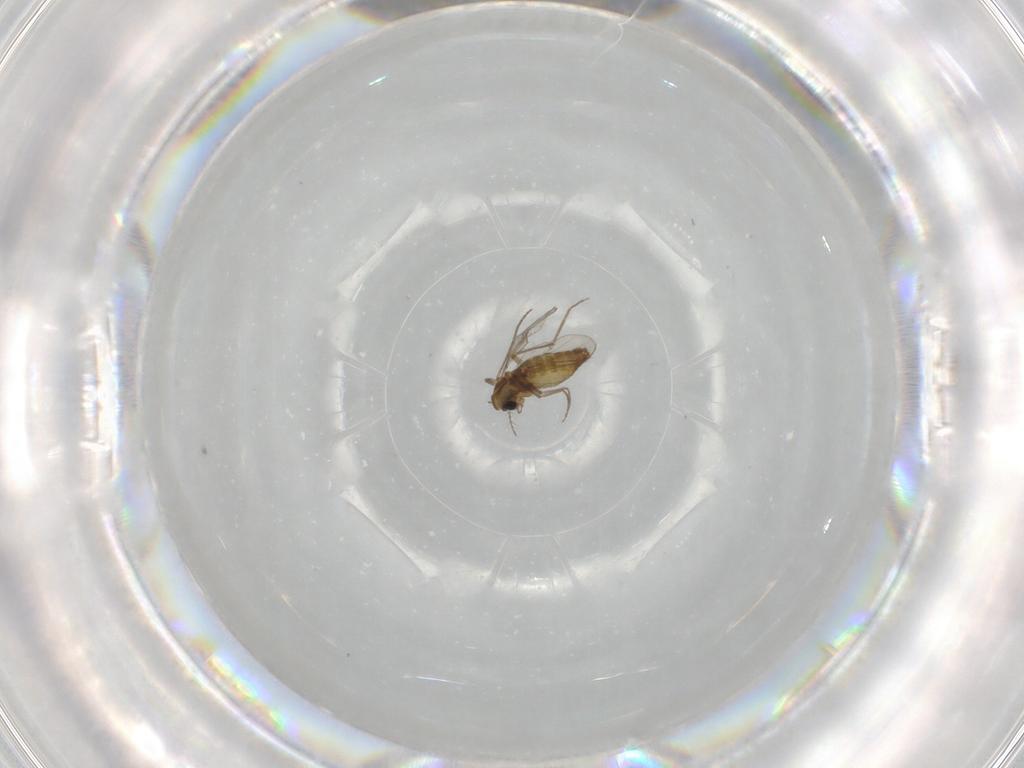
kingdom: Animalia
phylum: Arthropoda
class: Insecta
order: Diptera
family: Chironomidae
